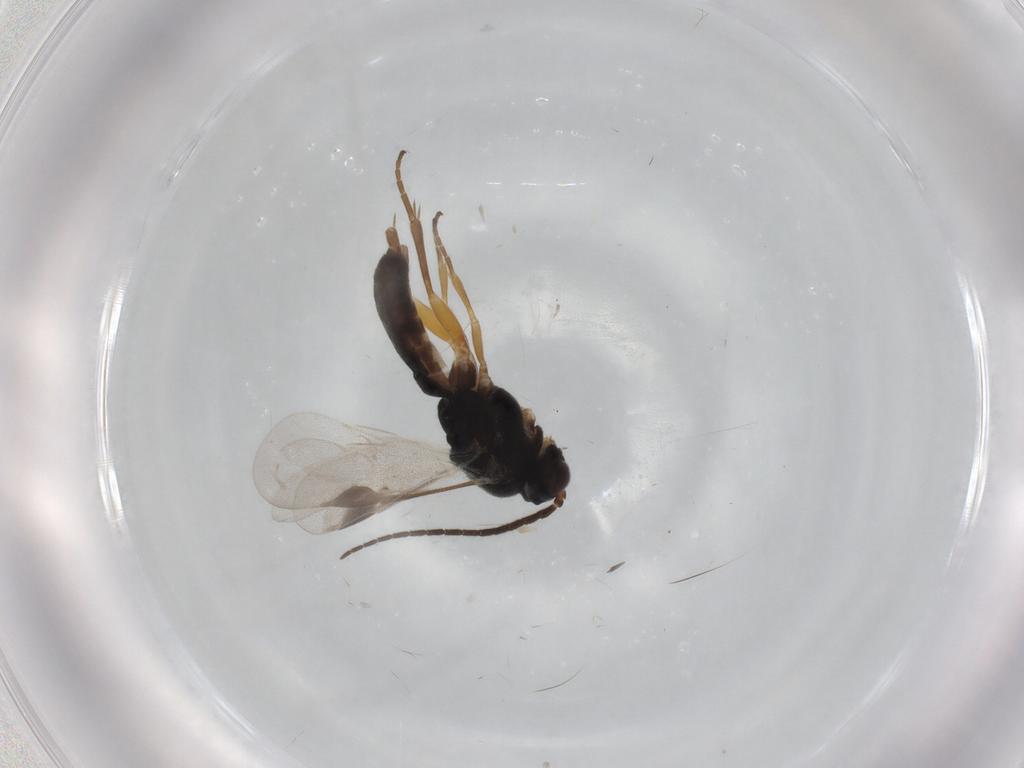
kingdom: Animalia
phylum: Arthropoda
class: Insecta
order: Hymenoptera
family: Braconidae
